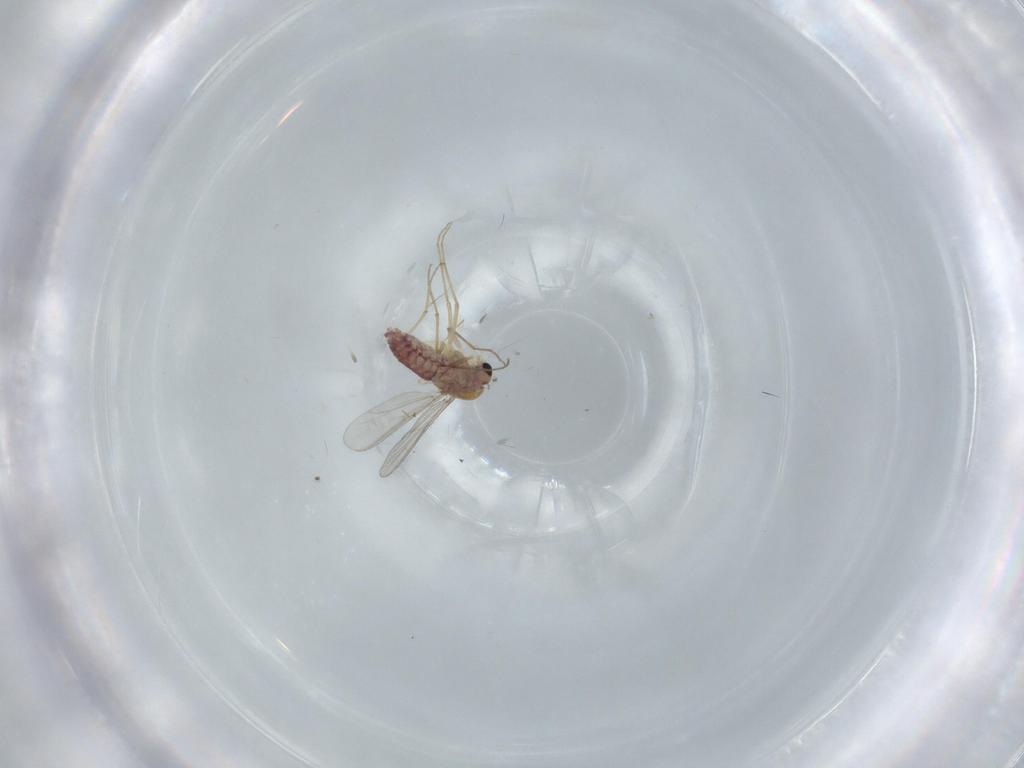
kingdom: Animalia
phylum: Arthropoda
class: Insecta
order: Diptera
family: Chironomidae
